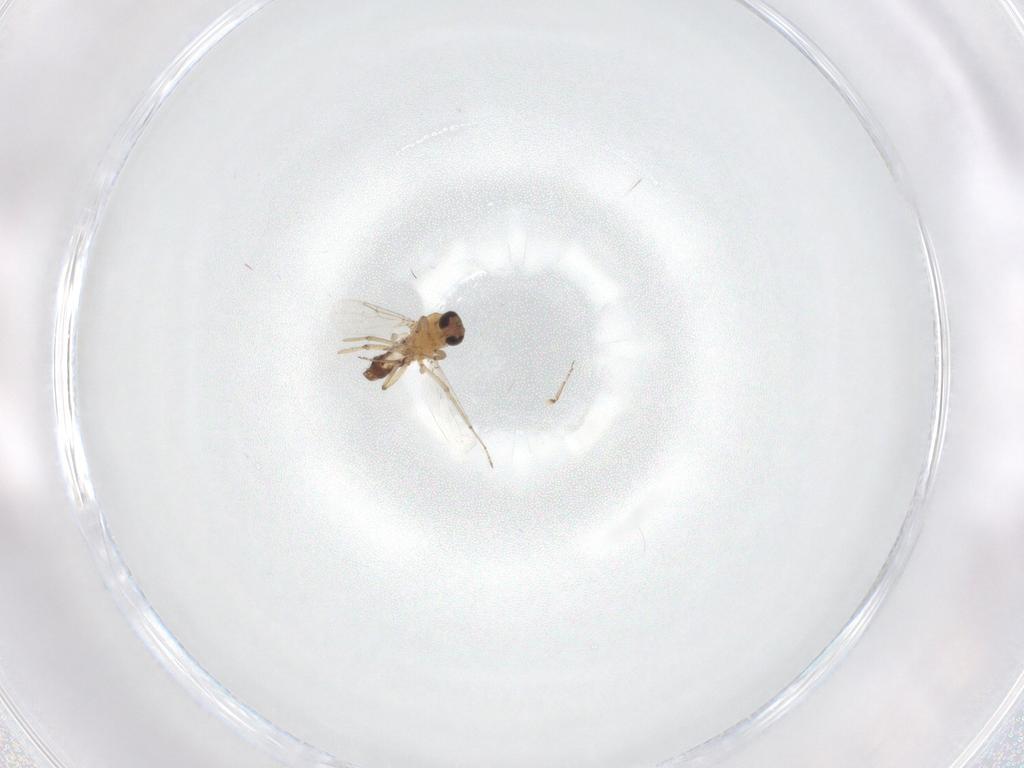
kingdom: Animalia
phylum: Arthropoda
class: Insecta
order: Diptera
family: Ceratopogonidae
